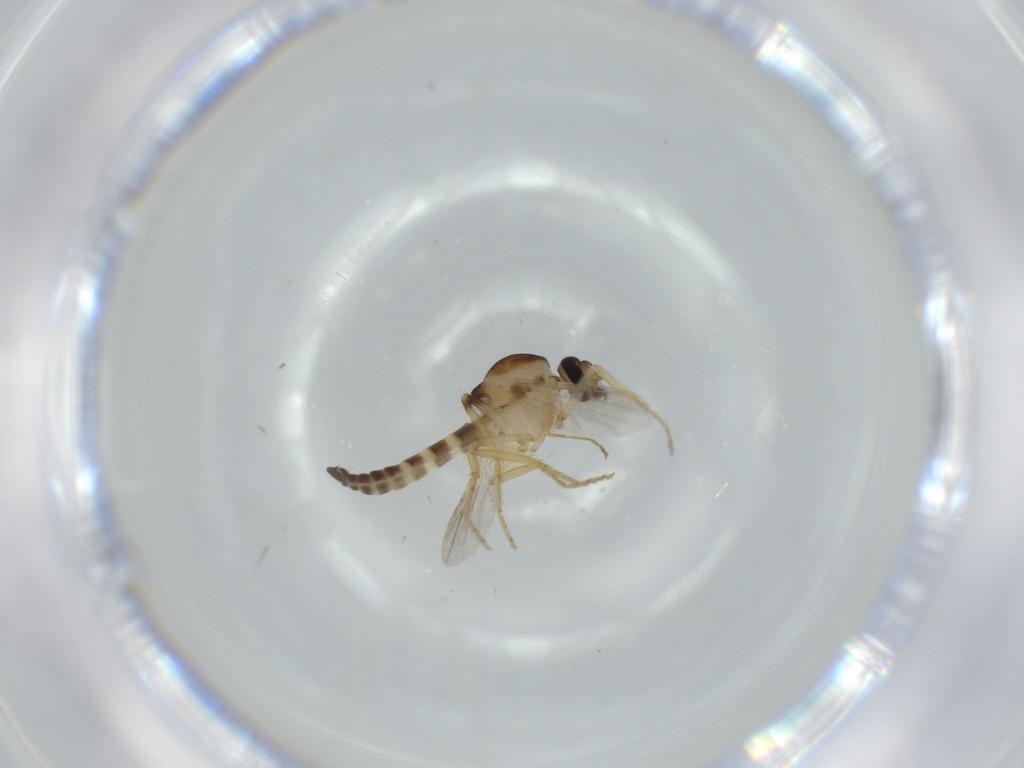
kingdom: Animalia
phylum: Arthropoda
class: Insecta
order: Diptera
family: Ceratopogonidae
